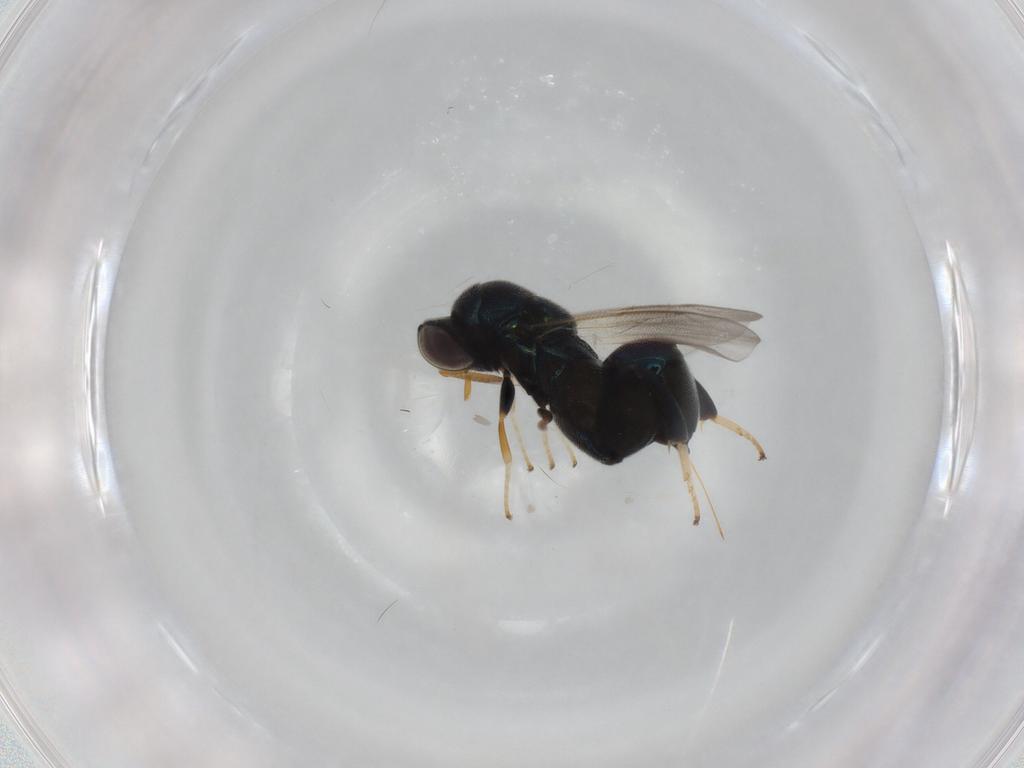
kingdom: Animalia
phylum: Arthropoda
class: Insecta
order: Hymenoptera
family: Torymidae
